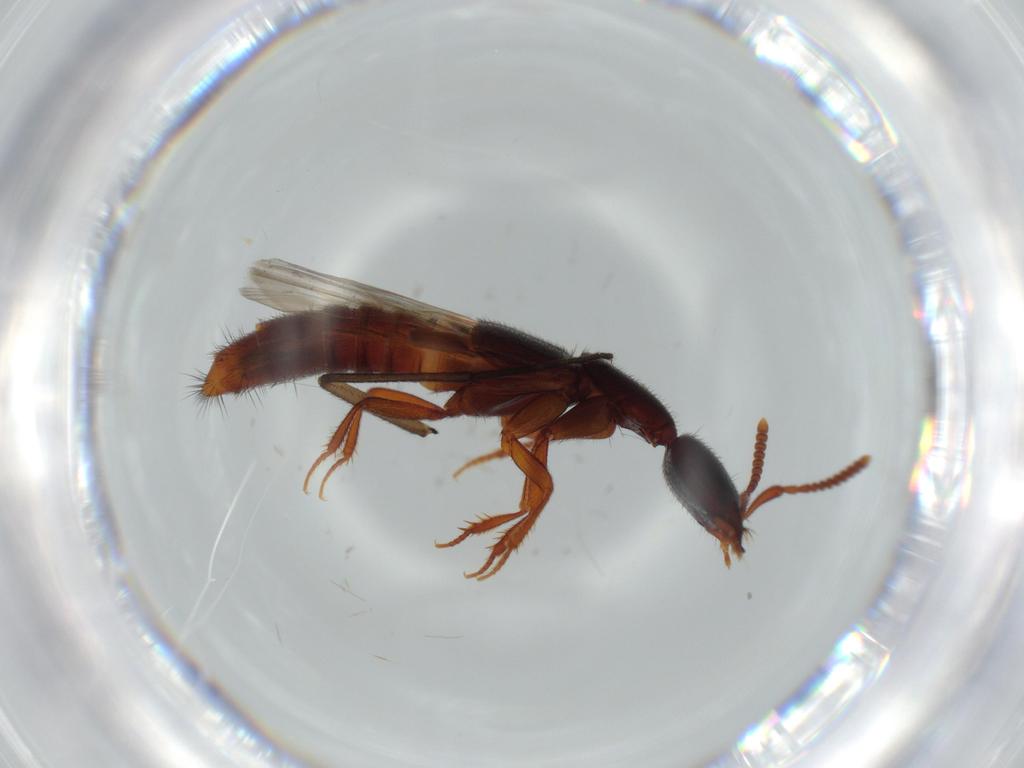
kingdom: Animalia
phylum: Arthropoda
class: Insecta
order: Coleoptera
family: Staphylinidae
